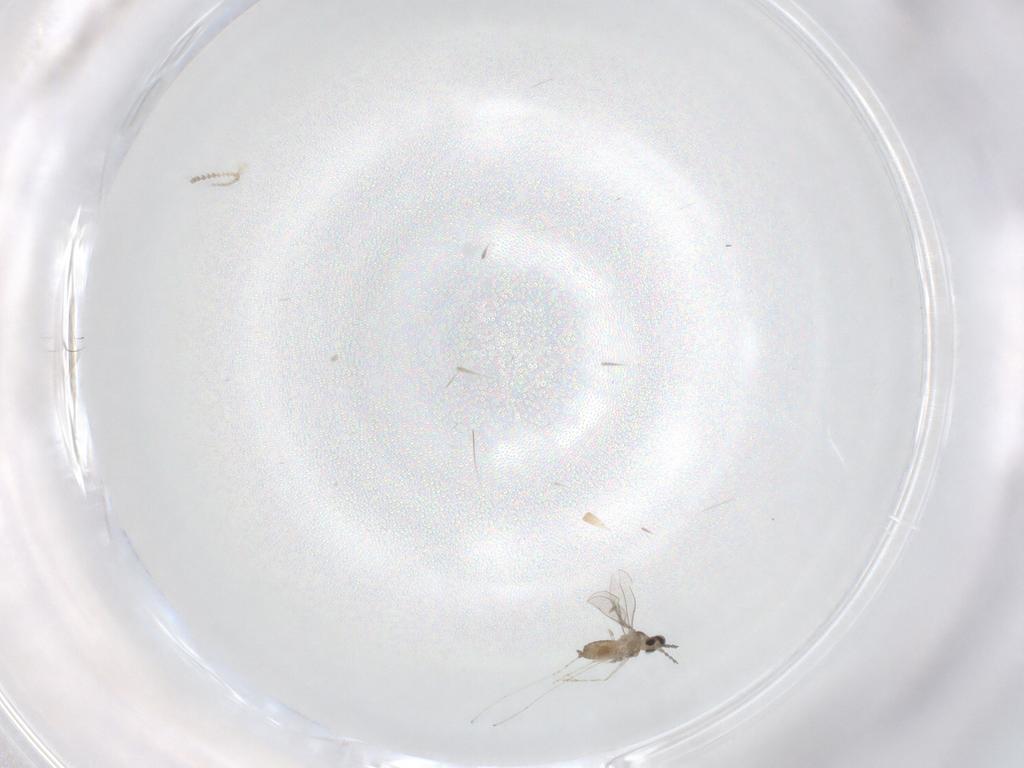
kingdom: Animalia
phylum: Arthropoda
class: Insecta
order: Diptera
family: Cecidomyiidae
